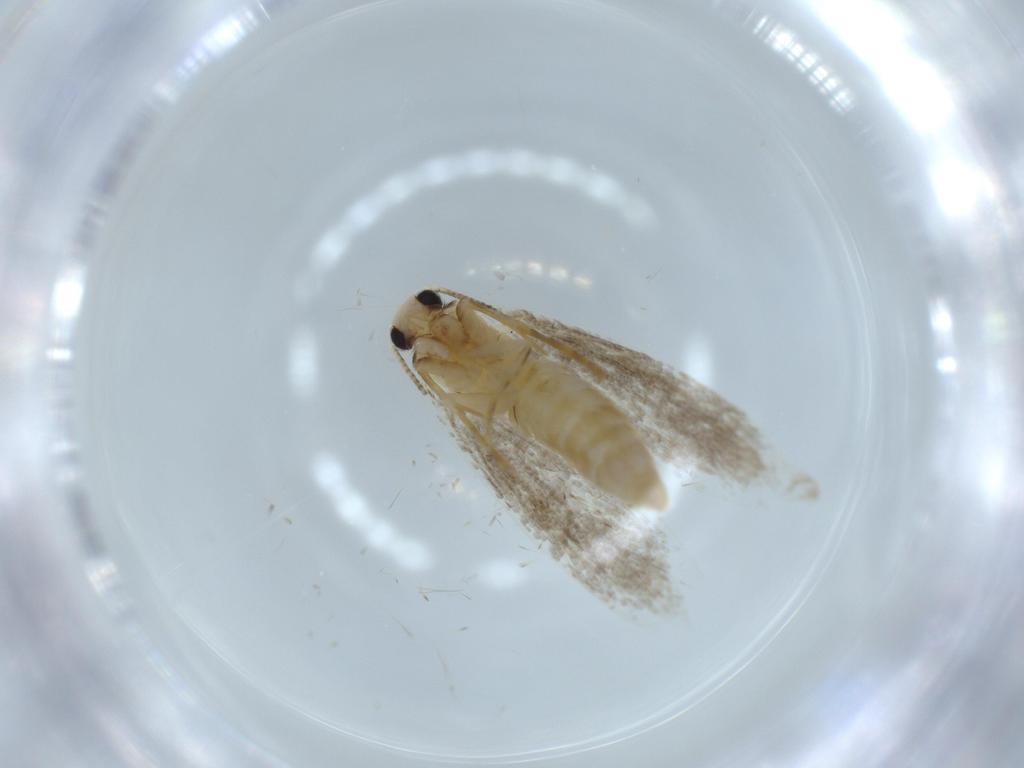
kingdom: Animalia
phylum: Arthropoda
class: Insecta
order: Lepidoptera
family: Tineidae
